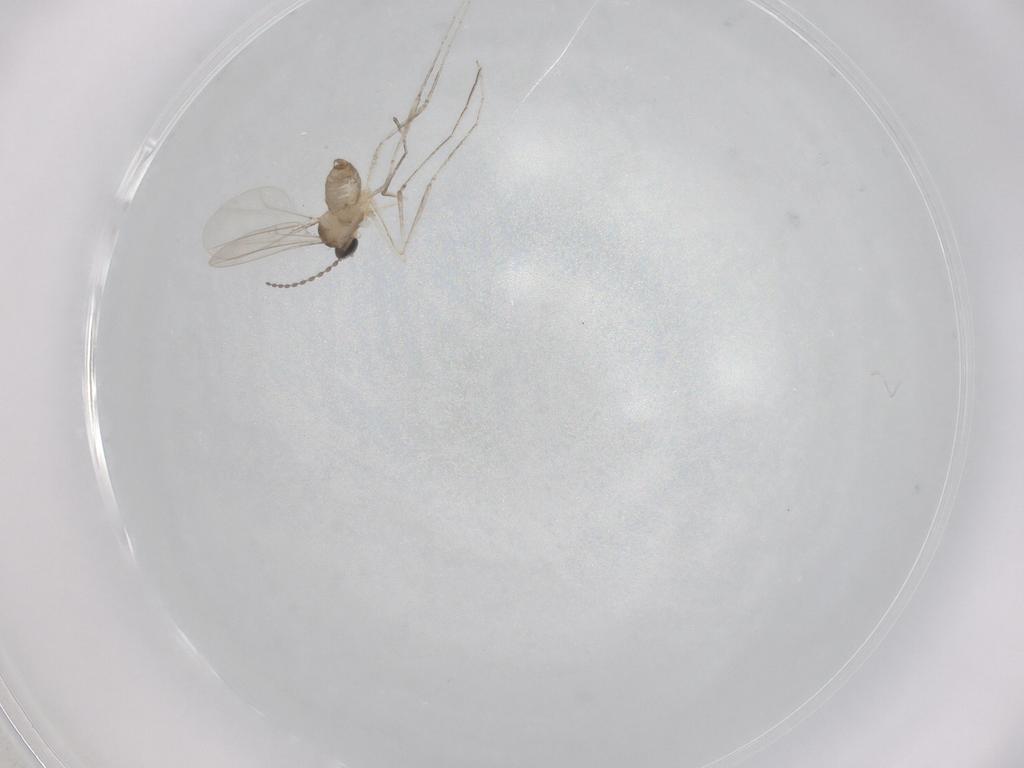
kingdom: Animalia
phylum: Arthropoda
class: Insecta
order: Diptera
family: Cecidomyiidae
